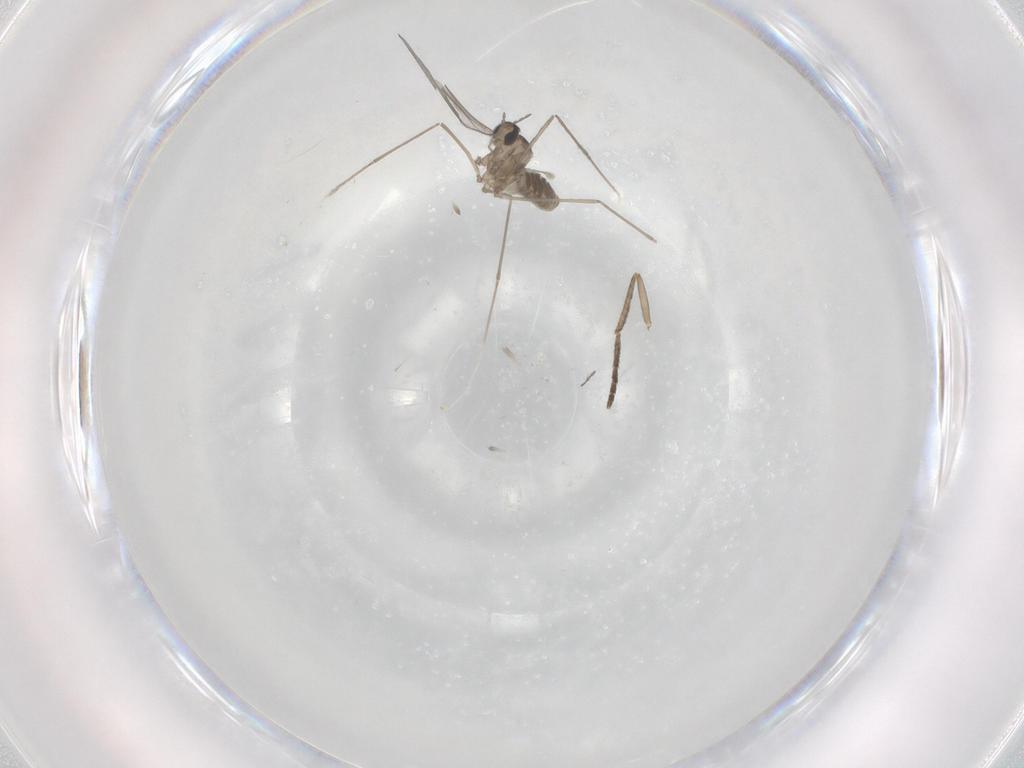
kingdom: Animalia
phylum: Arthropoda
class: Insecta
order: Diptera
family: Cecidomyiidae
